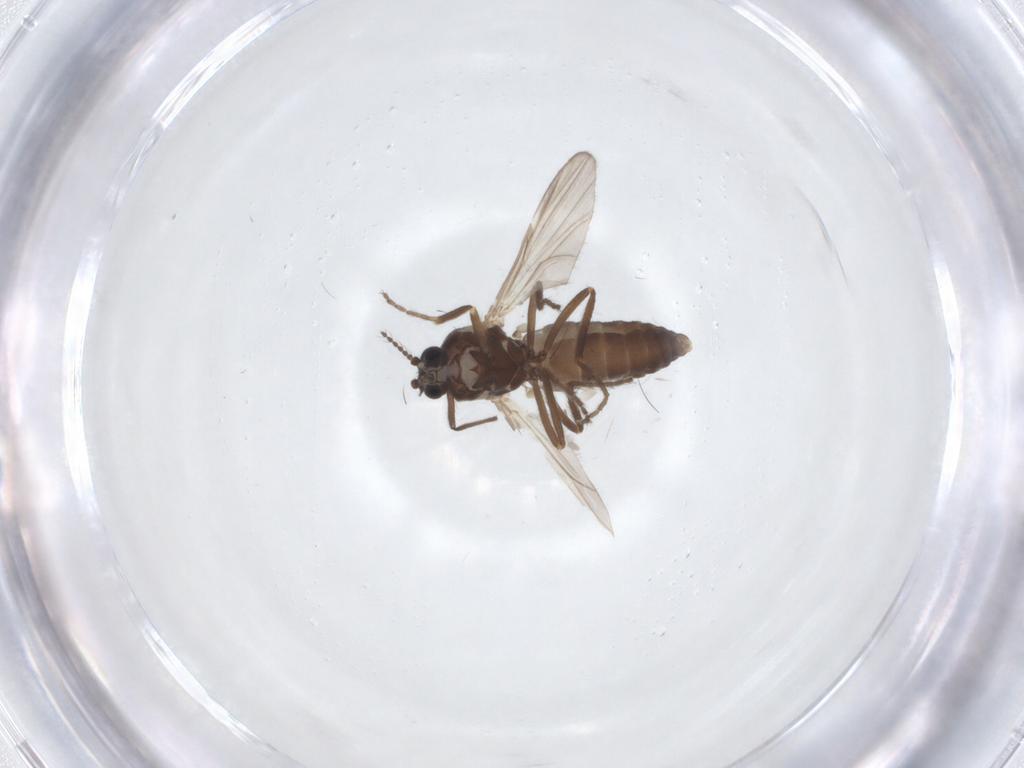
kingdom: Animalia
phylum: Arthropoda
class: Insecta
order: Diptera
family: Ceratopogonidae
